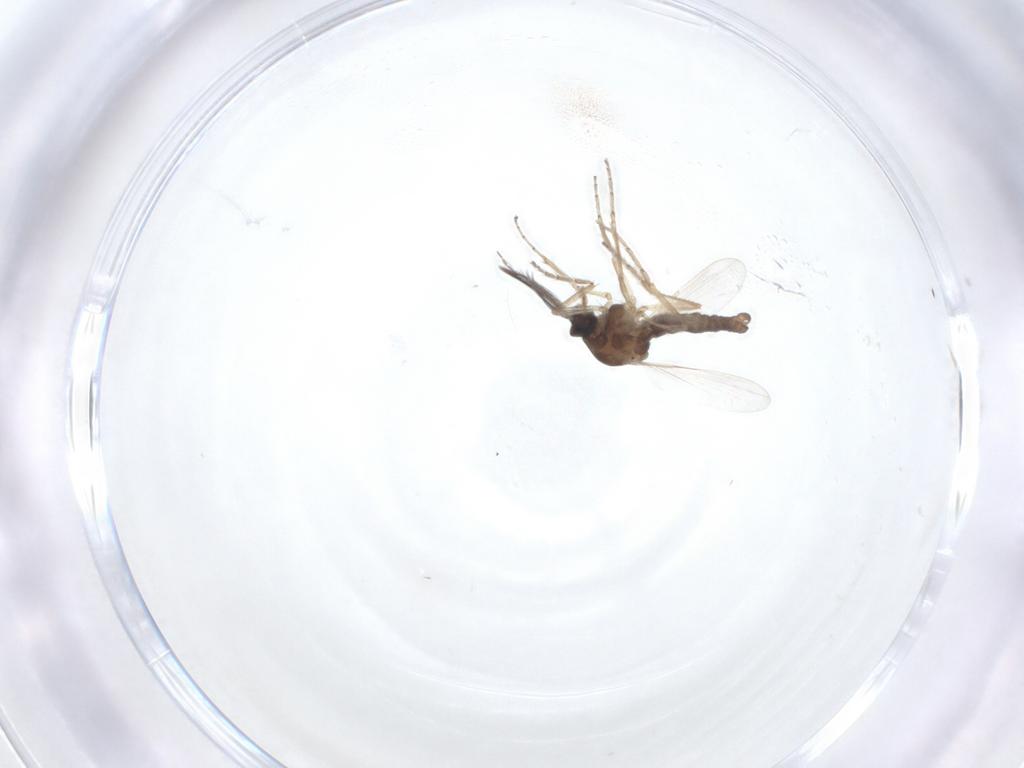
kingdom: Animalia
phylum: Arthropoda
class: Insecta
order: Diptera
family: Ceratopogonidae
